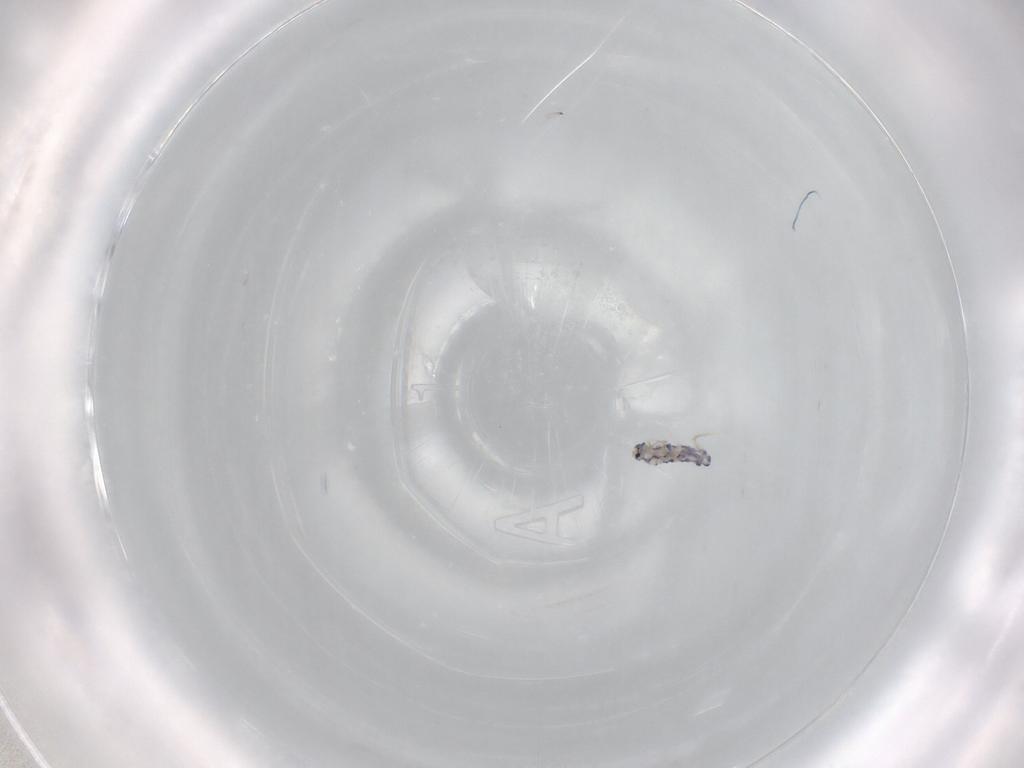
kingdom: Animalia
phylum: Arthropoda
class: Collembola
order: Entomobryomorpha
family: Entomobryidae
